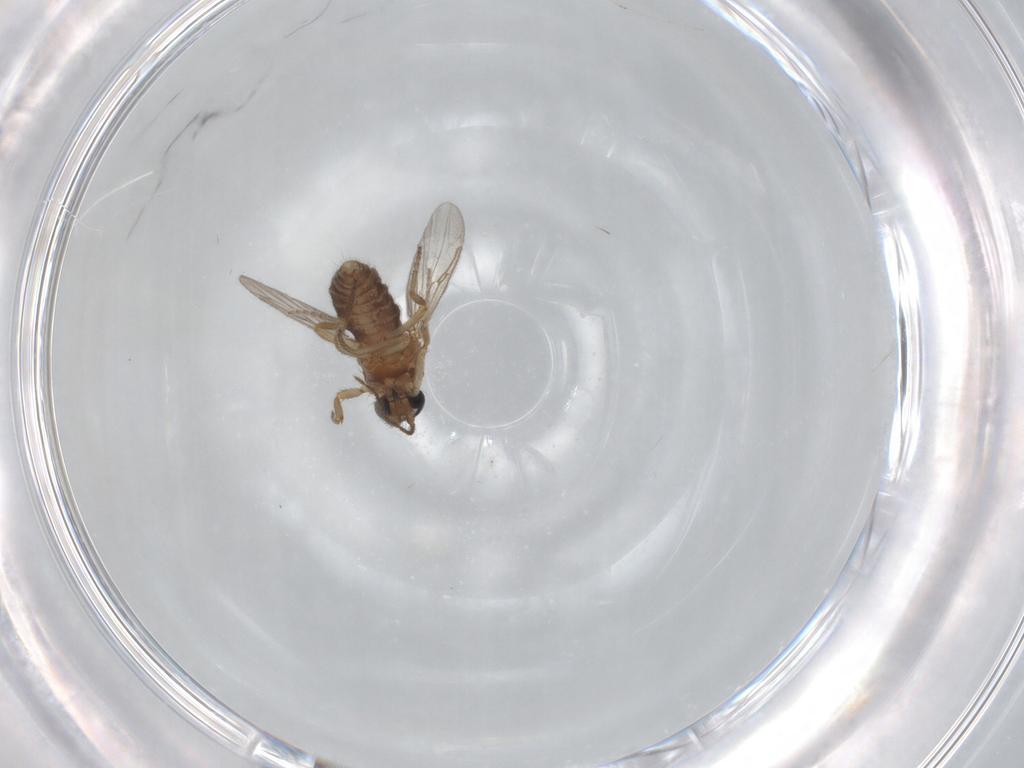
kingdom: Animalia
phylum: Arthropoda
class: Insecta
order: Diptera
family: Ceratopogonidae
